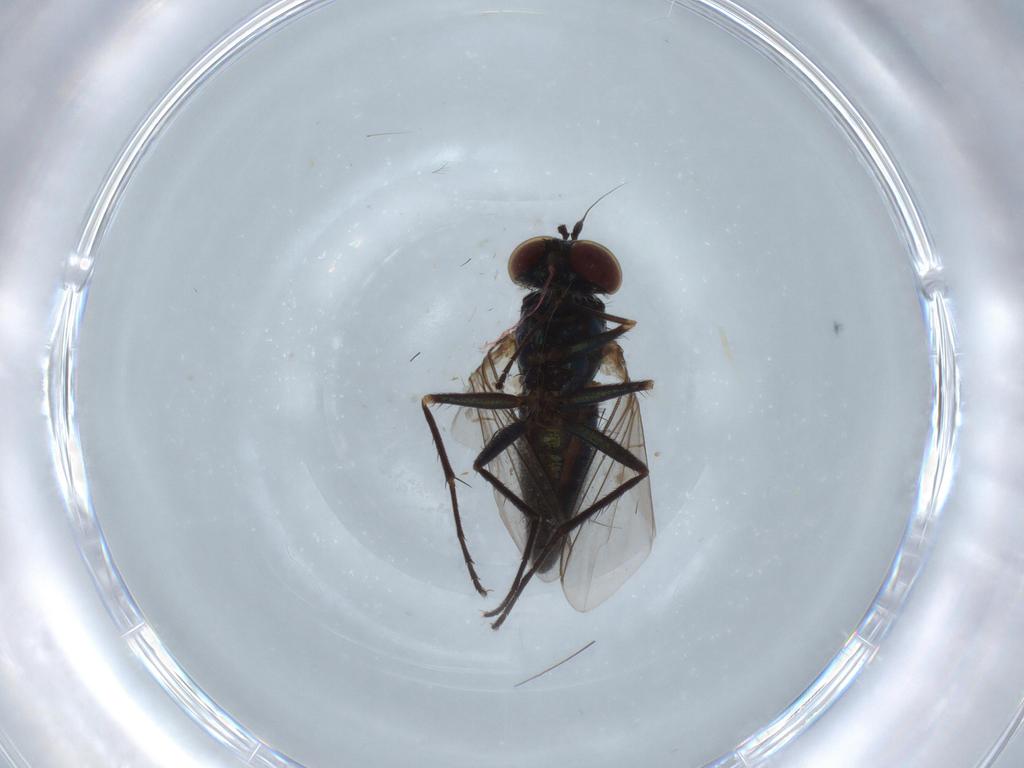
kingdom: Animalia
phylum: Arthropoda
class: Insecta
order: Diptera
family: Dolichopodidae
